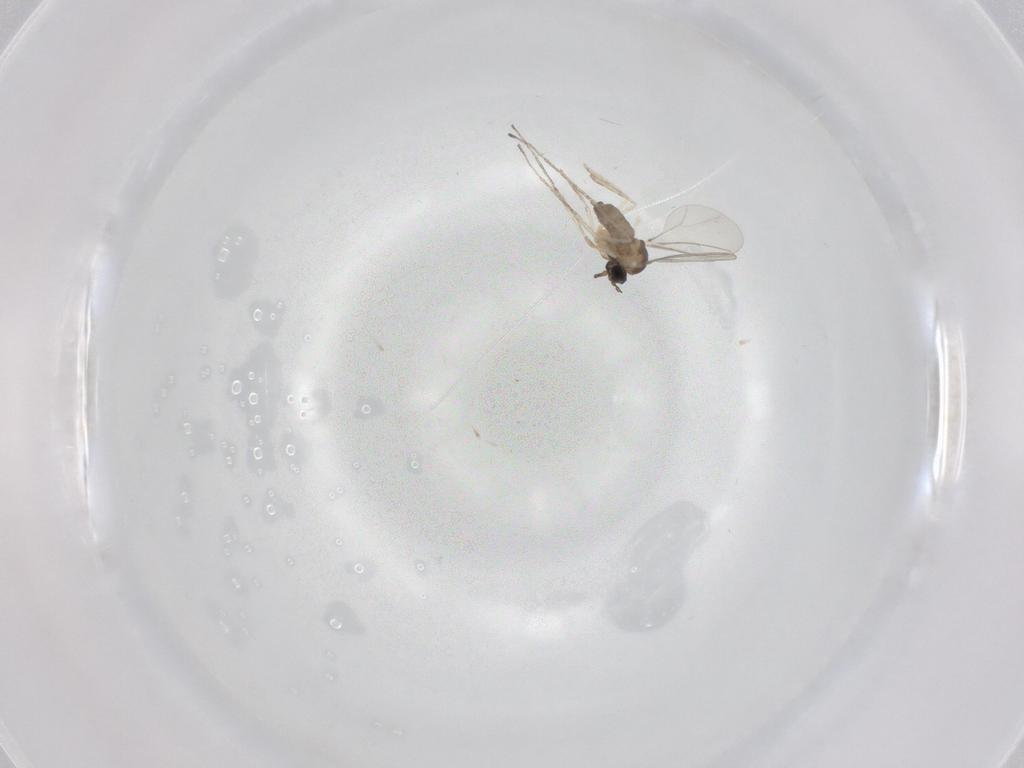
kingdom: Animalia
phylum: Arthropoda
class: Insecta
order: Diptera
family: Cecidomyiidae
